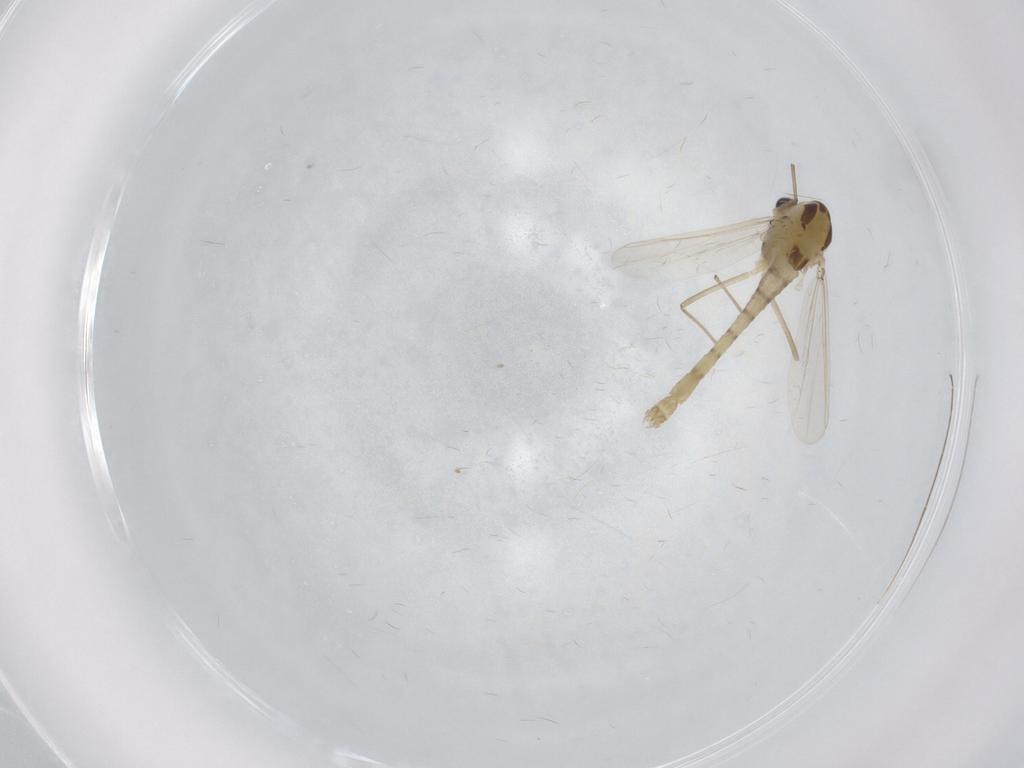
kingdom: Animalia
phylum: Arthropoda
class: Insecta
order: Diptera
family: Chironomidae
